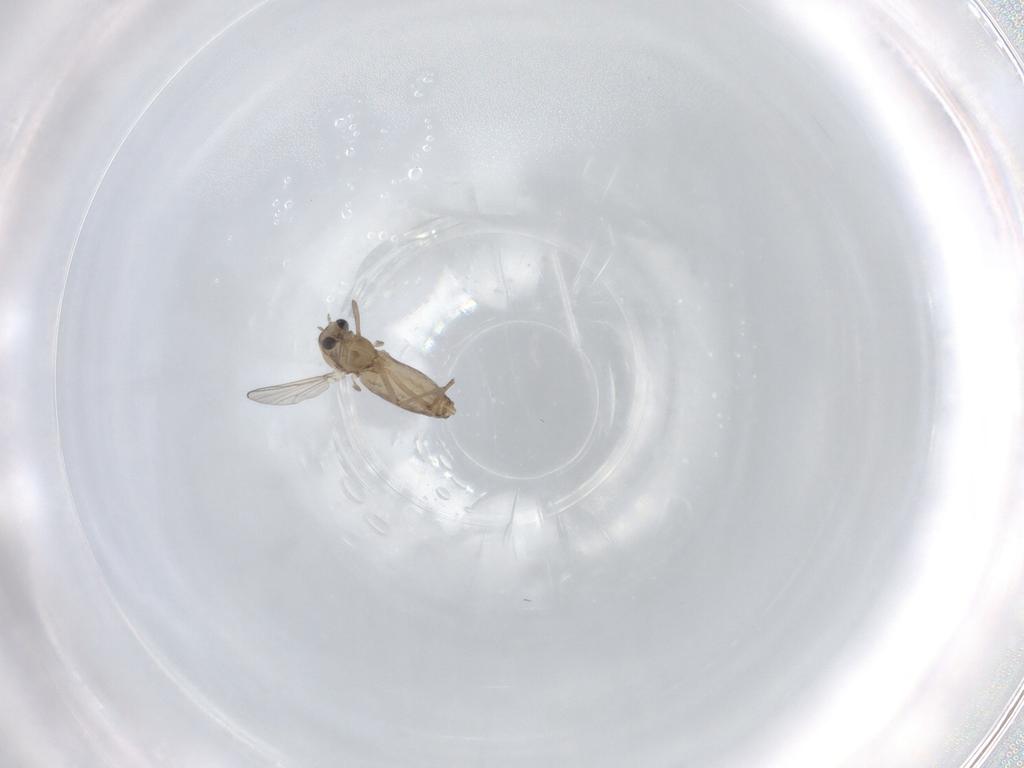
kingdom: Animalia
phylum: Arthropoda
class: Insecta
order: Diptera
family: Chironomidae
